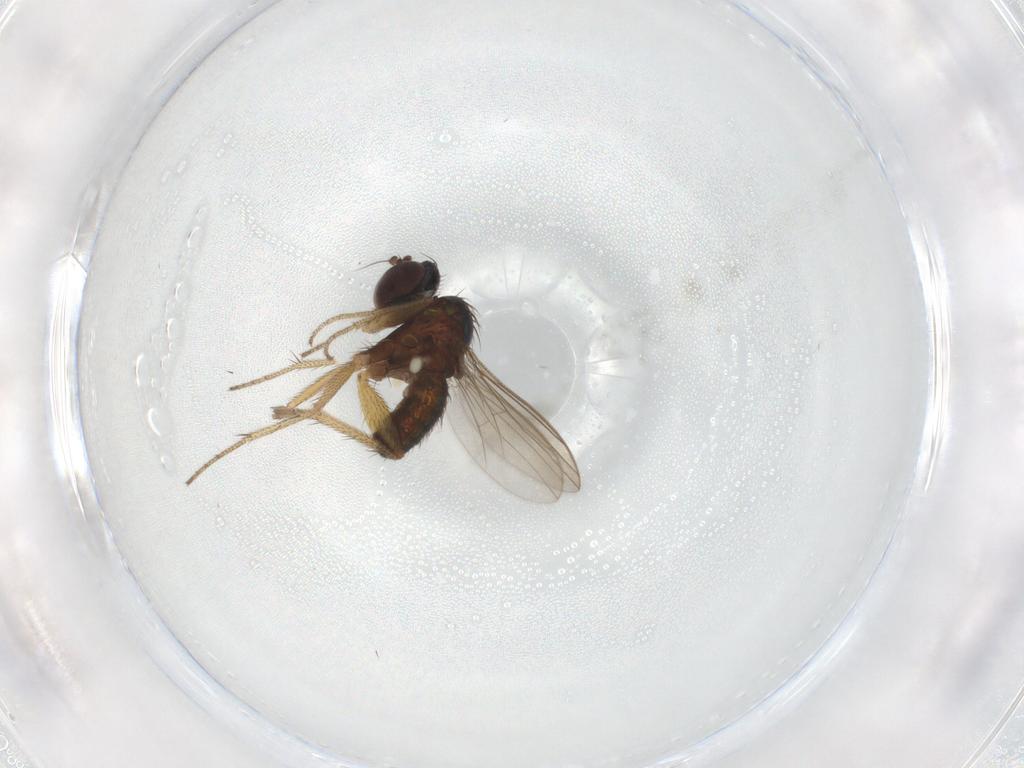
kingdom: Animalia
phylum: Arthropoda
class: Insecta
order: Diptera
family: Dolichopodidae
